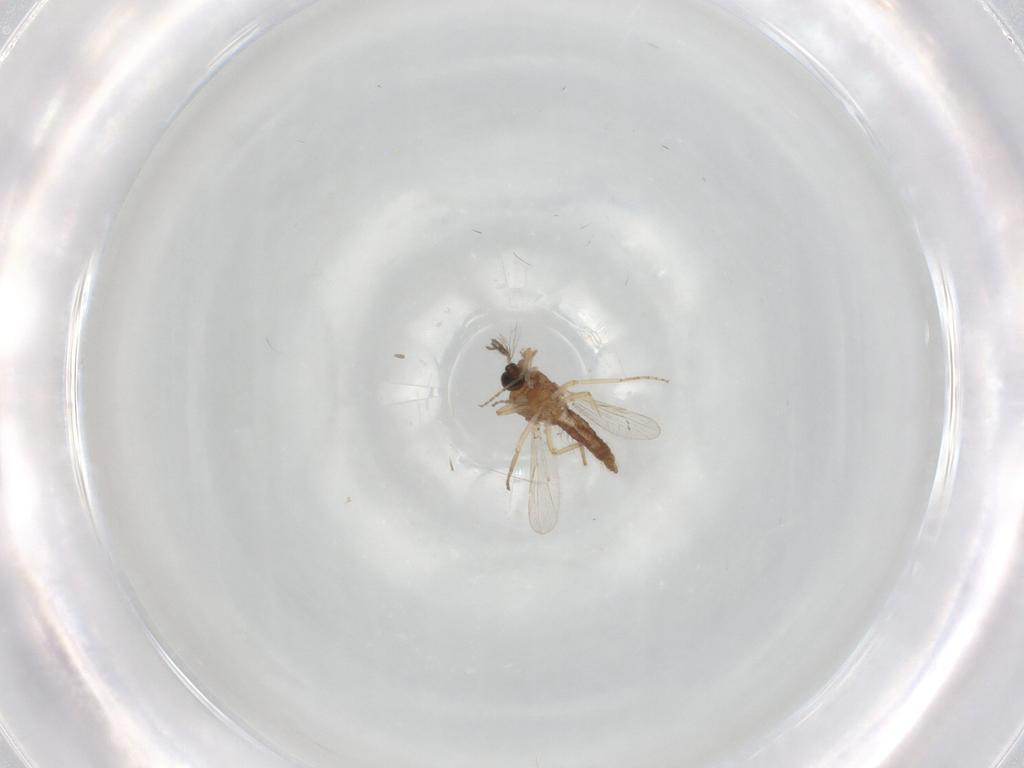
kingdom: Animalia
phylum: Arthropoda
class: Insecta
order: Diptera
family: Ceratopogonidae
